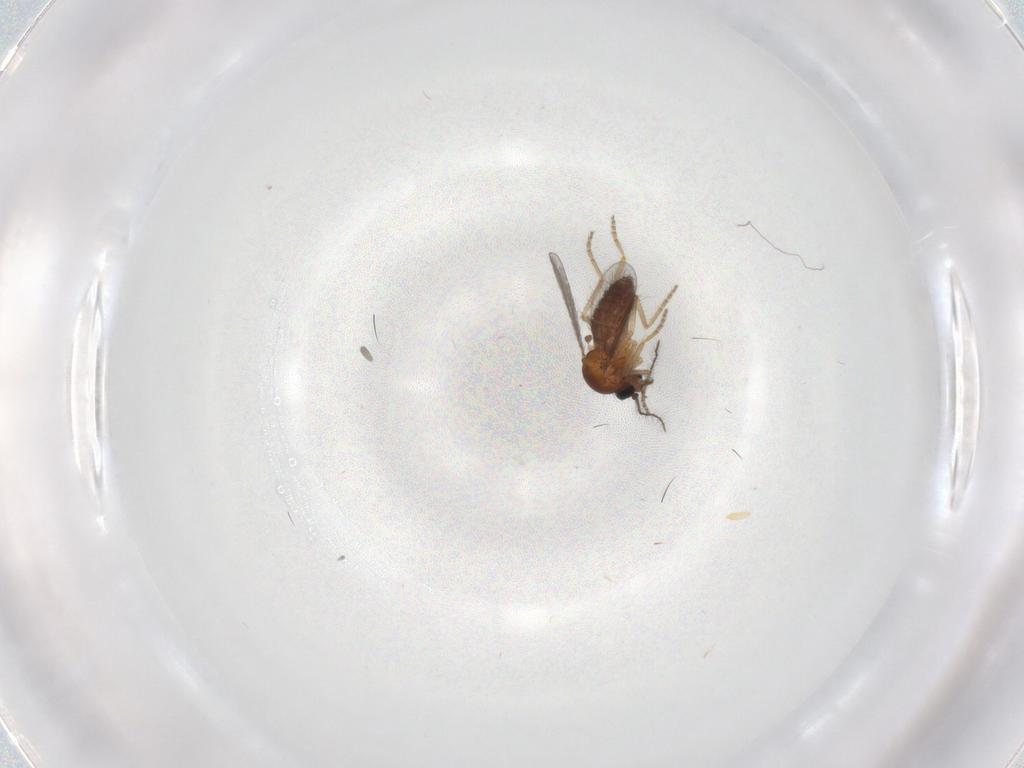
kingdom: Animalia
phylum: Arthropoda
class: Insecta
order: Diptera
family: Ceratopogonidae
